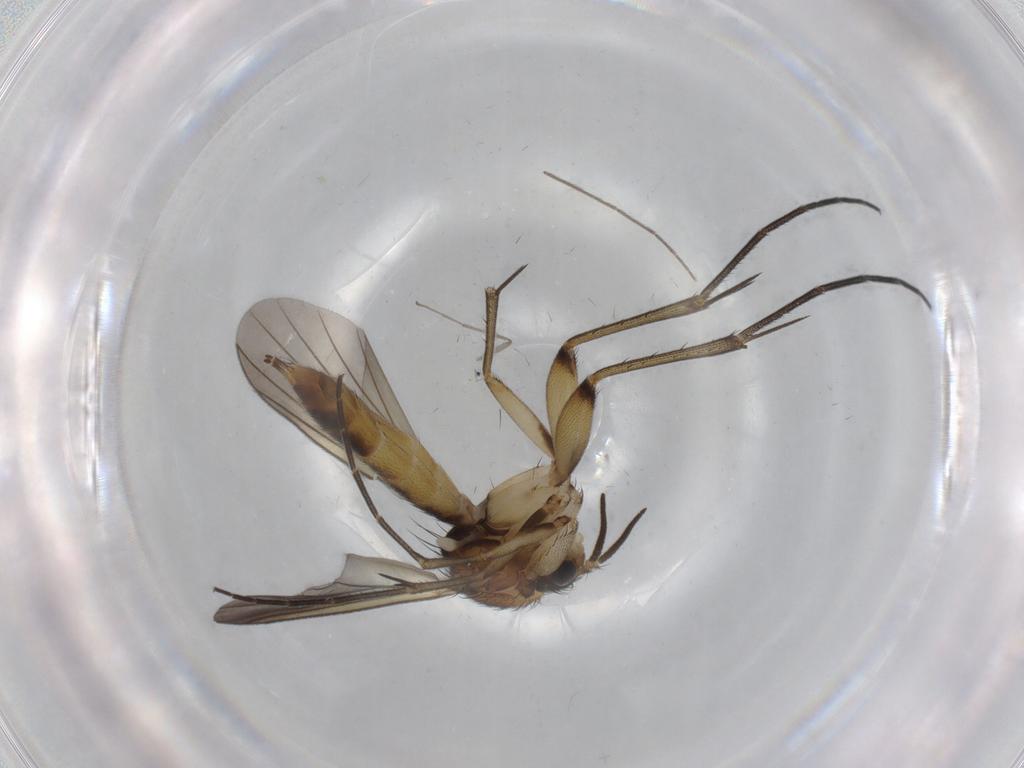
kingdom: Animalia
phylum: Arthropoda
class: Insecta
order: Diptera
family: Mycetophilidae
